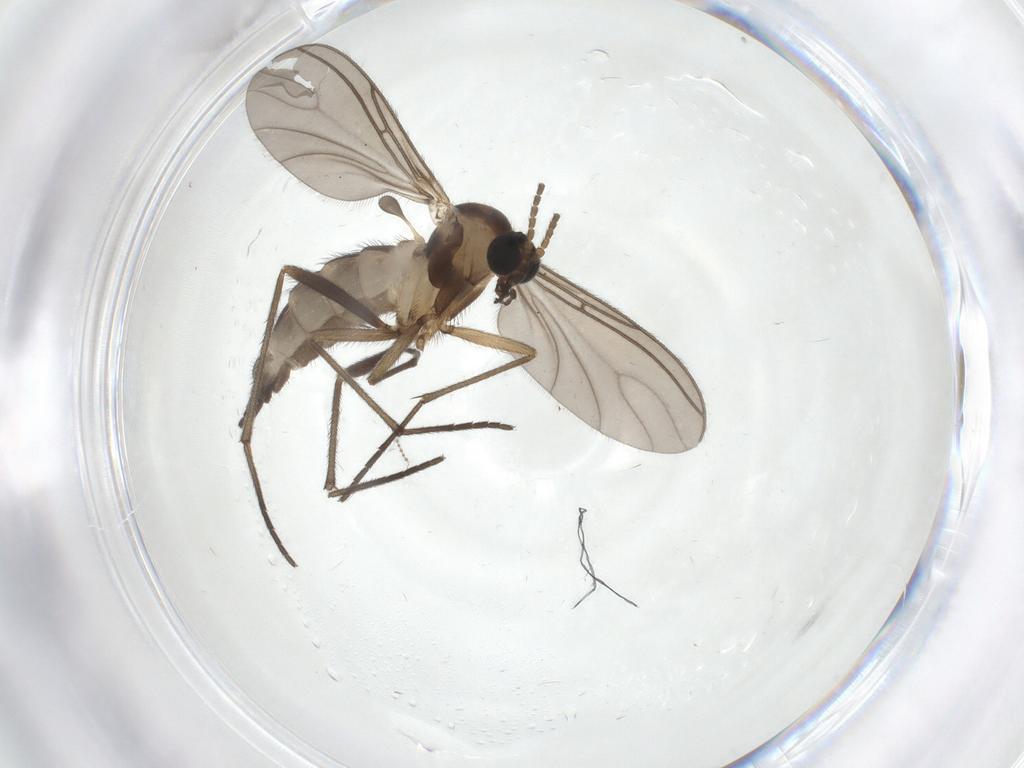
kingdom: Animalia
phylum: Arthropoda
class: Insecta
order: Diptera
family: Sciaridae
